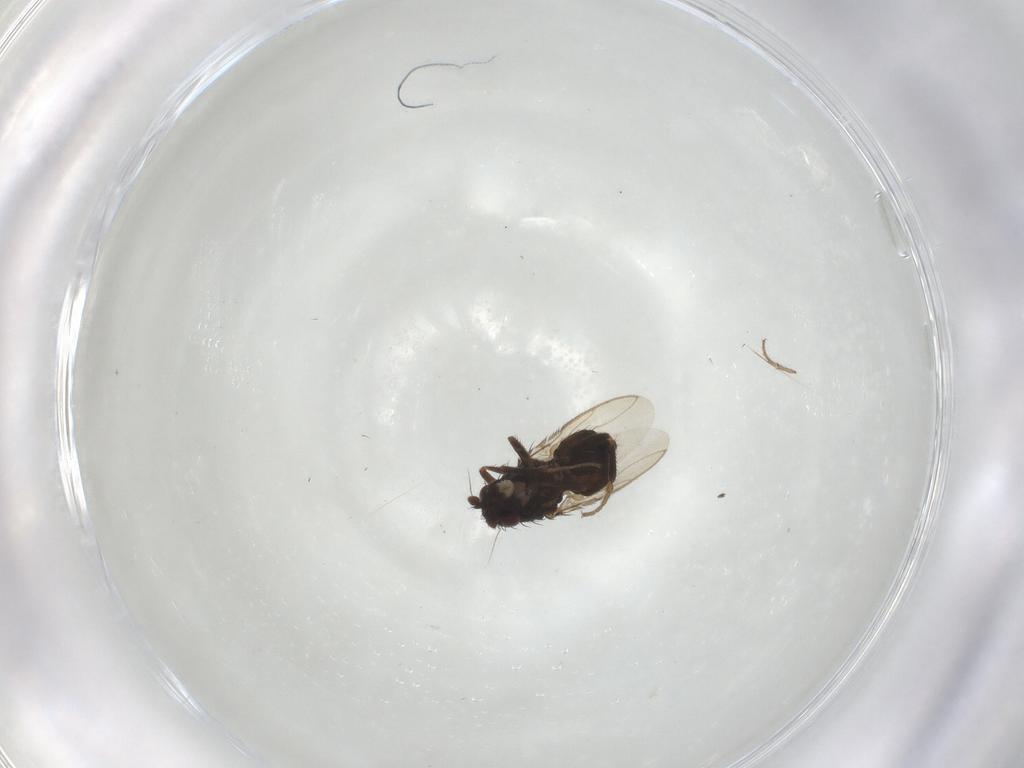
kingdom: Animalia
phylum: Arthropoda
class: Insecta
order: Diptera
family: Sphaeroceridae
